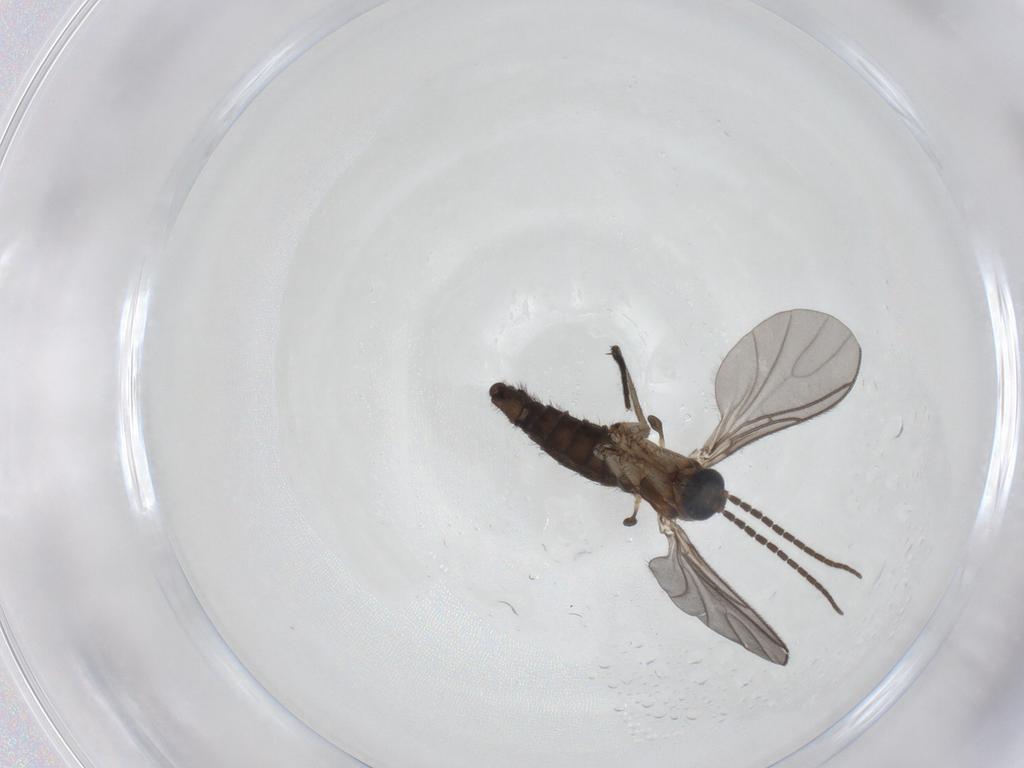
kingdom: Animalia
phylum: Arthropoda
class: Insecta
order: Diptera
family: Sciaridae
